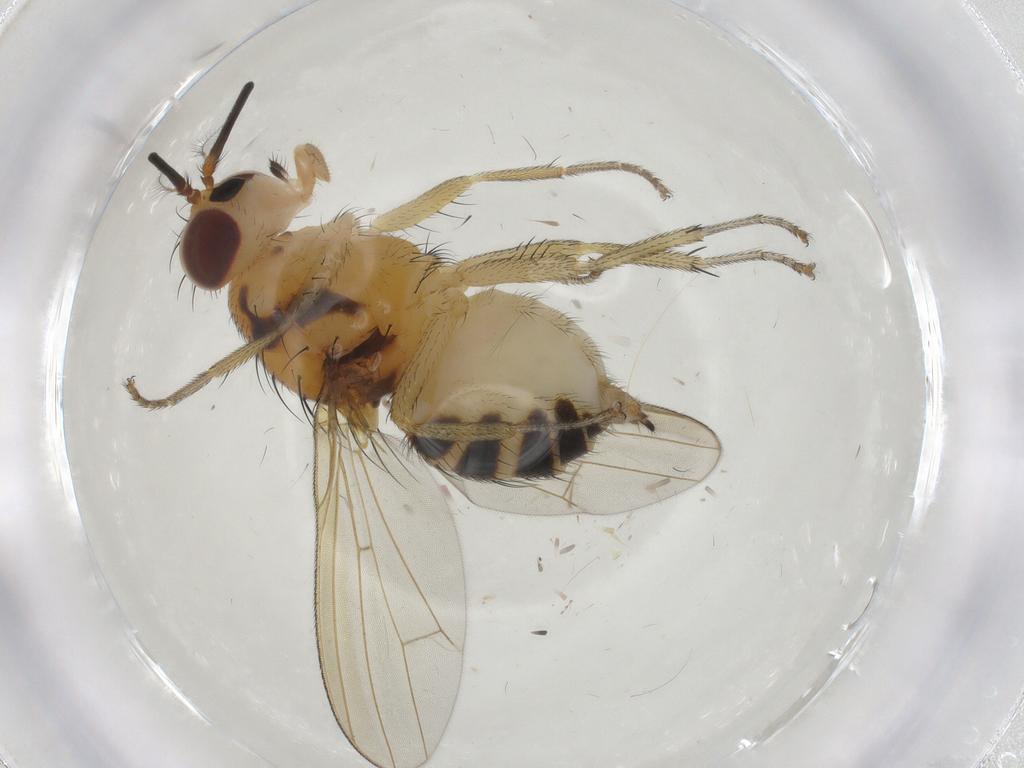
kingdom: Animalia
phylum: Arthropoda
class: Insecta
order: Diptera
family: Lauxaniidae
